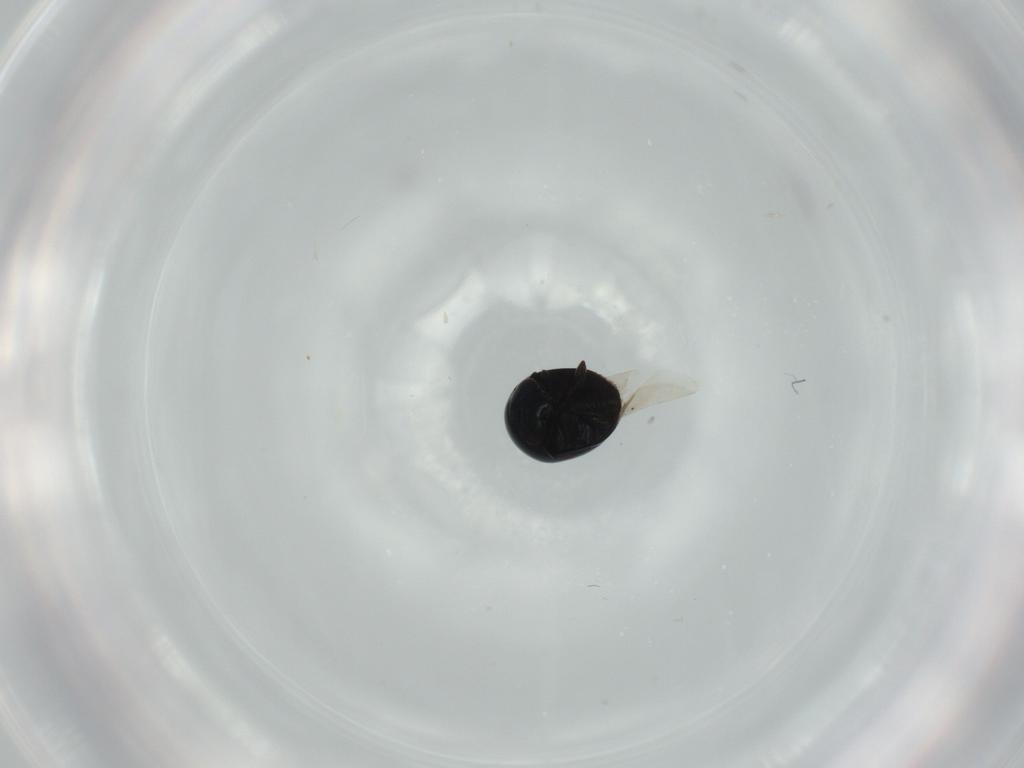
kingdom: Animalia
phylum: Arthropoda
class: Insecta
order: Coleoptera
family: Cybocephalidae
